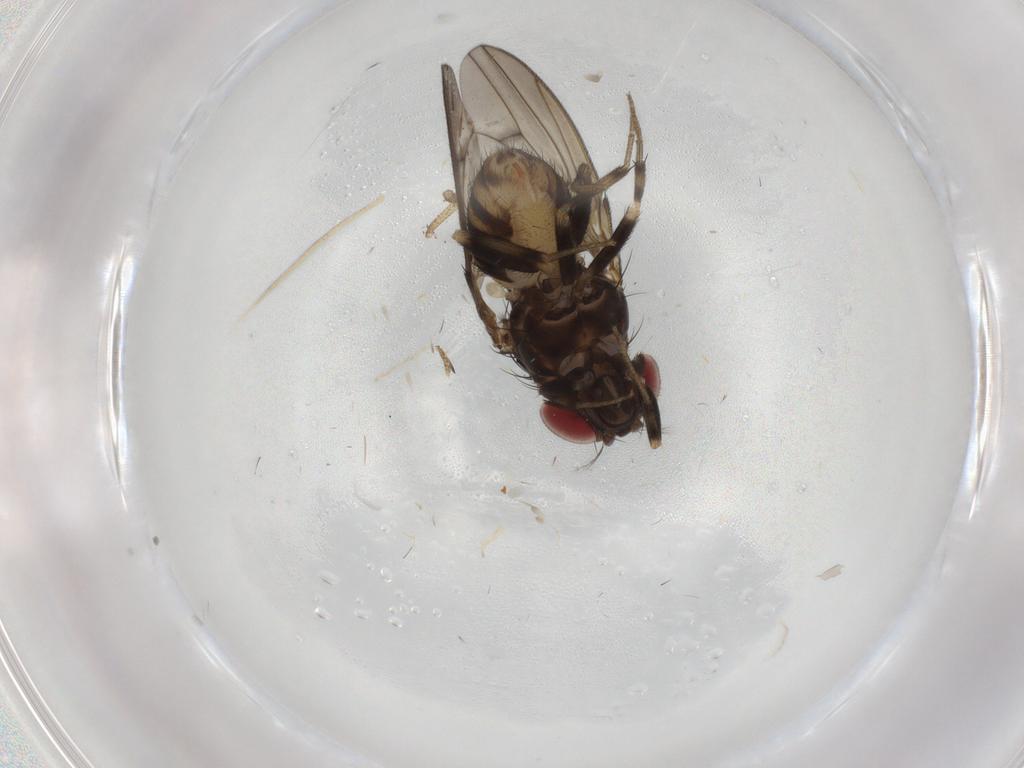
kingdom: Animalia
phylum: Arthropoda
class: Insecta
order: Diptera
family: Drosophilidae
